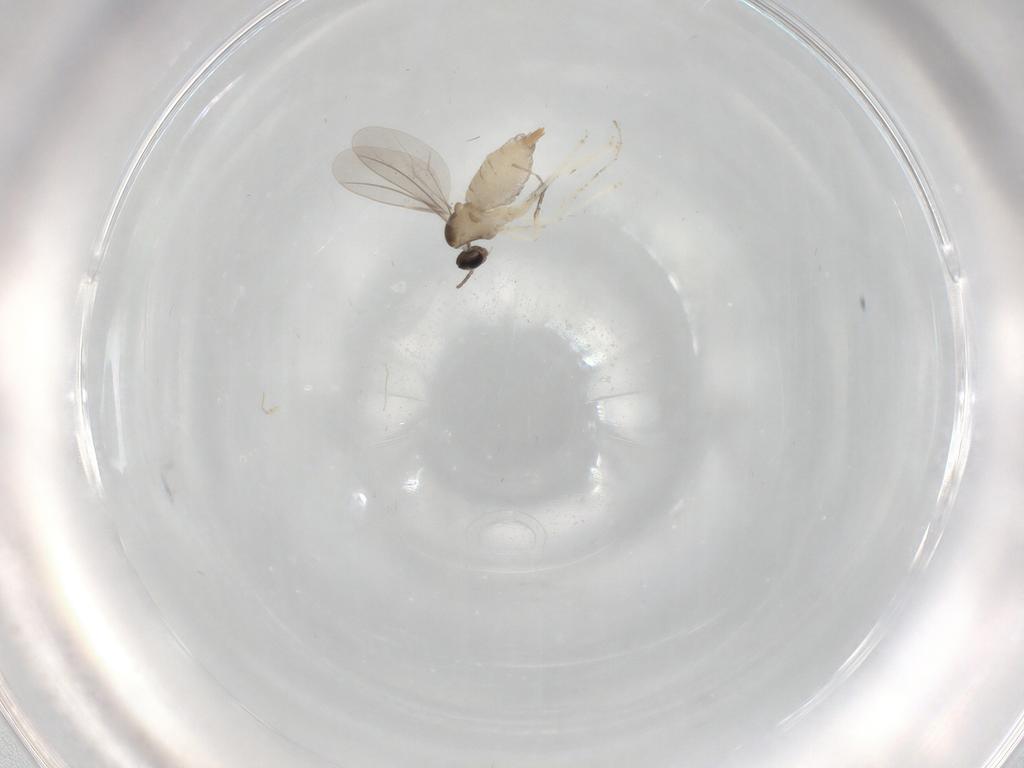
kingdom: Animalia
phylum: Arthropoda
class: Insecta
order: Diptera
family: Cecidomyiidae
